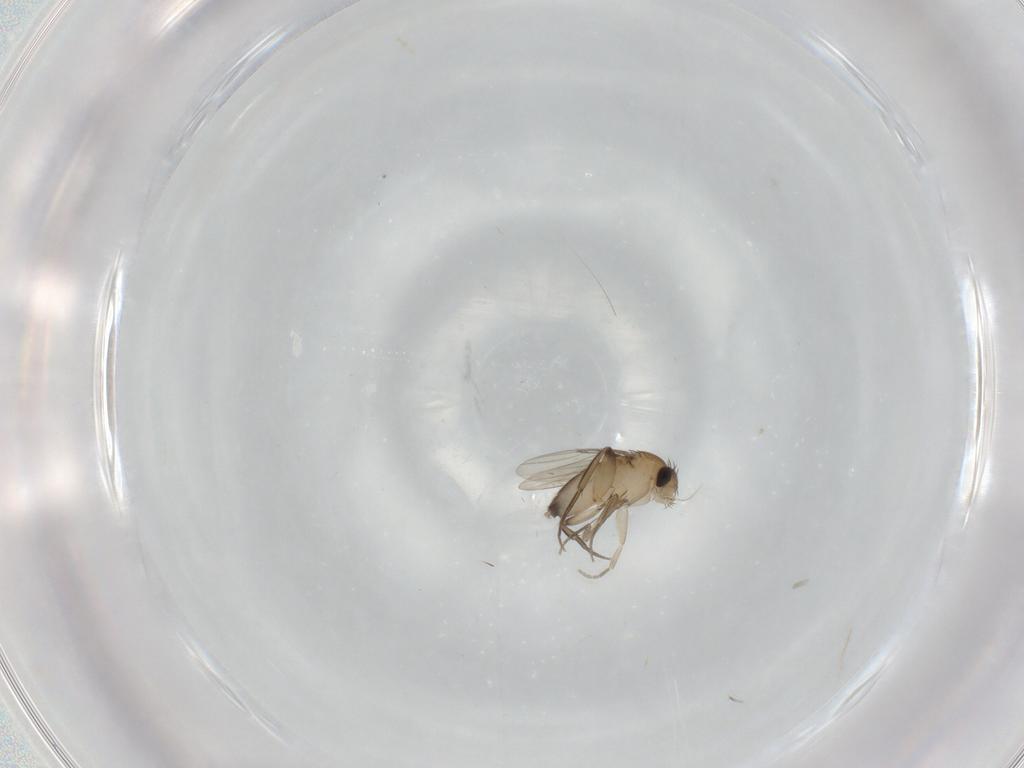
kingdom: Animalia
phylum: Arthropoda
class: Insecta
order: Diptera
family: Phoridae
